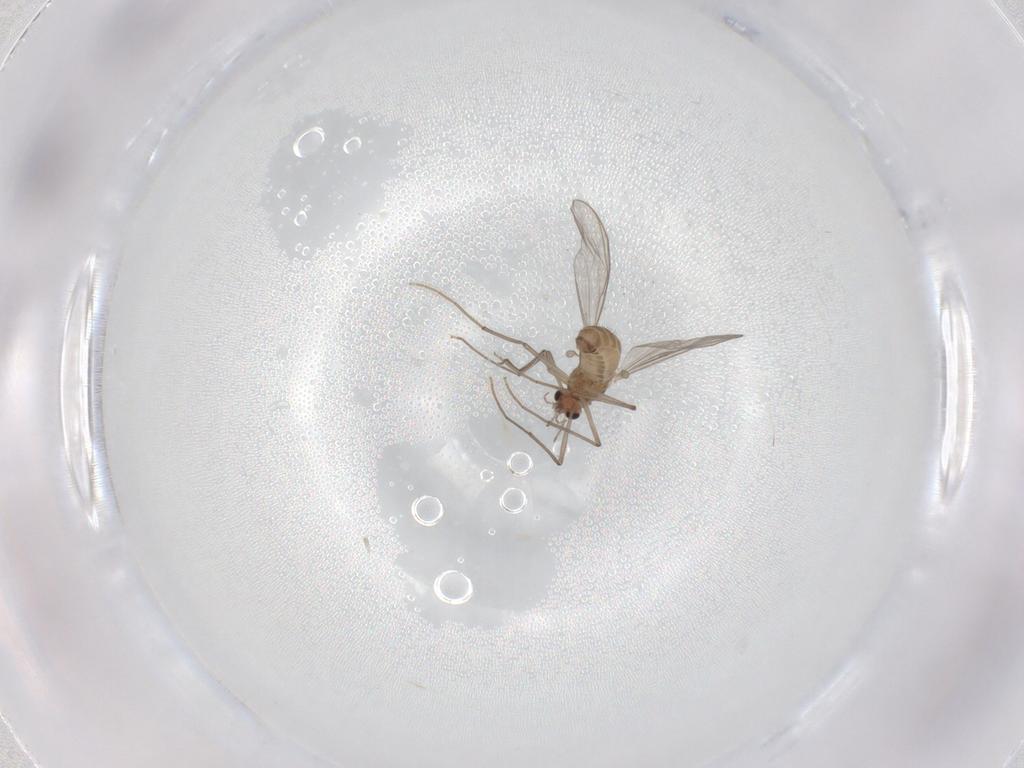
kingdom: Animalia
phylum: Arthropoda
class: Insecta
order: Diptera
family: Chironomidae
